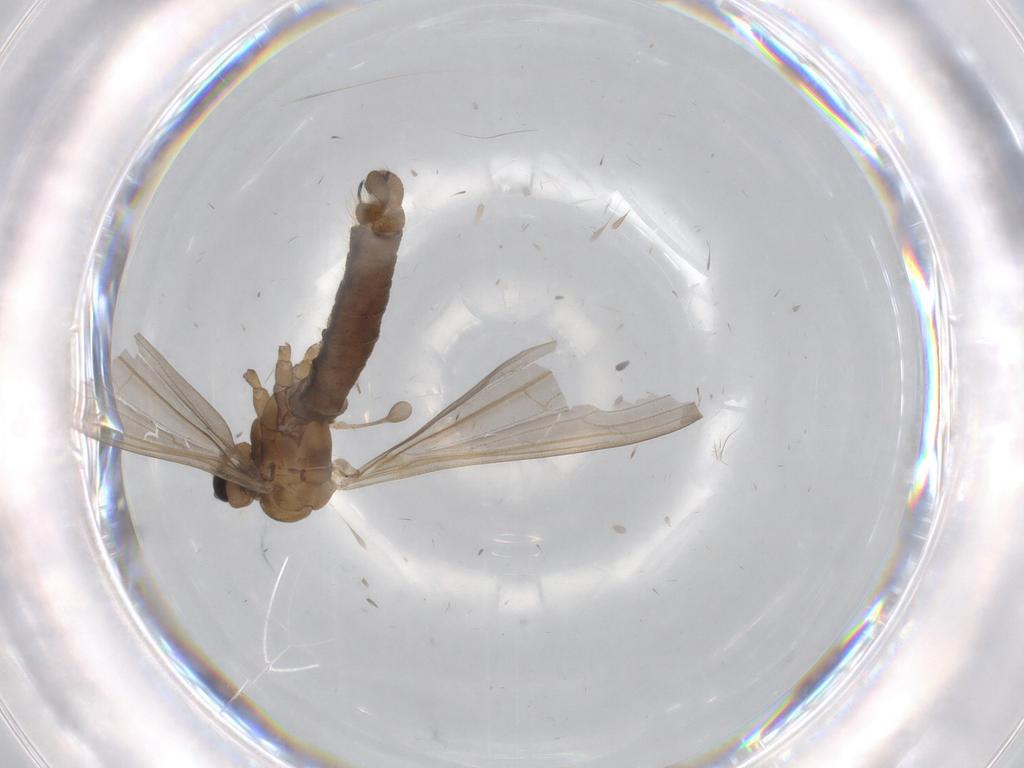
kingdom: Animalia
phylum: Arthropoda
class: Insecta
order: Diptera
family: Limoniidae
